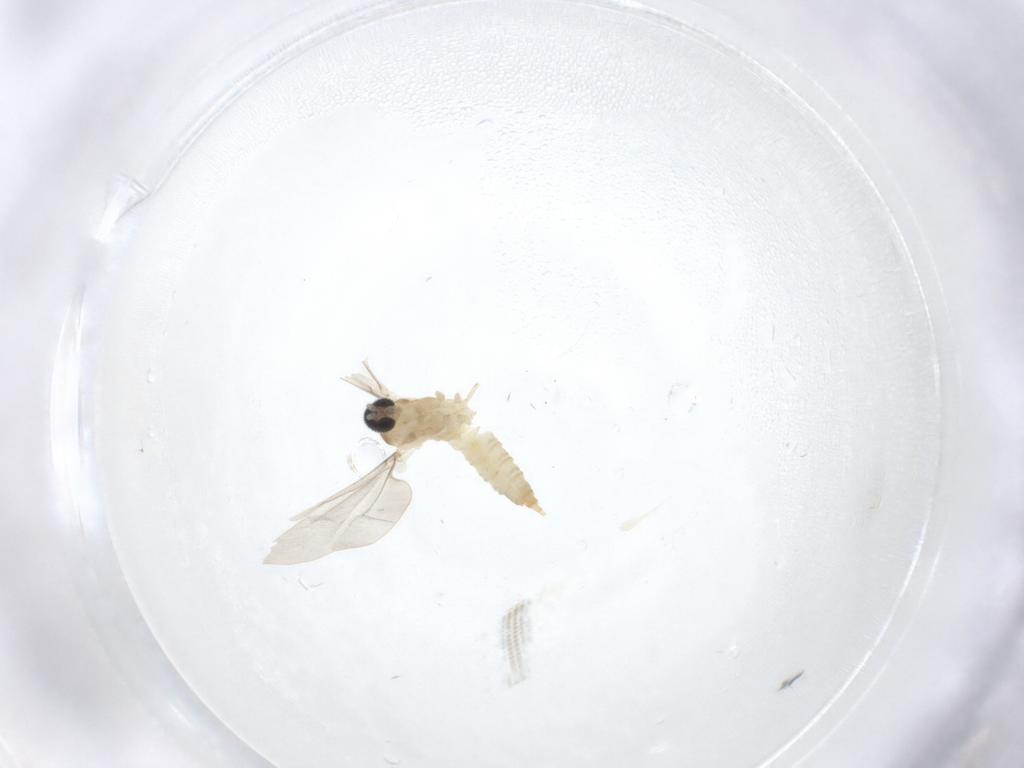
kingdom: Animalia
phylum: Arthropoda
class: Insecta
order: Diptera
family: Cecidomyiidae
